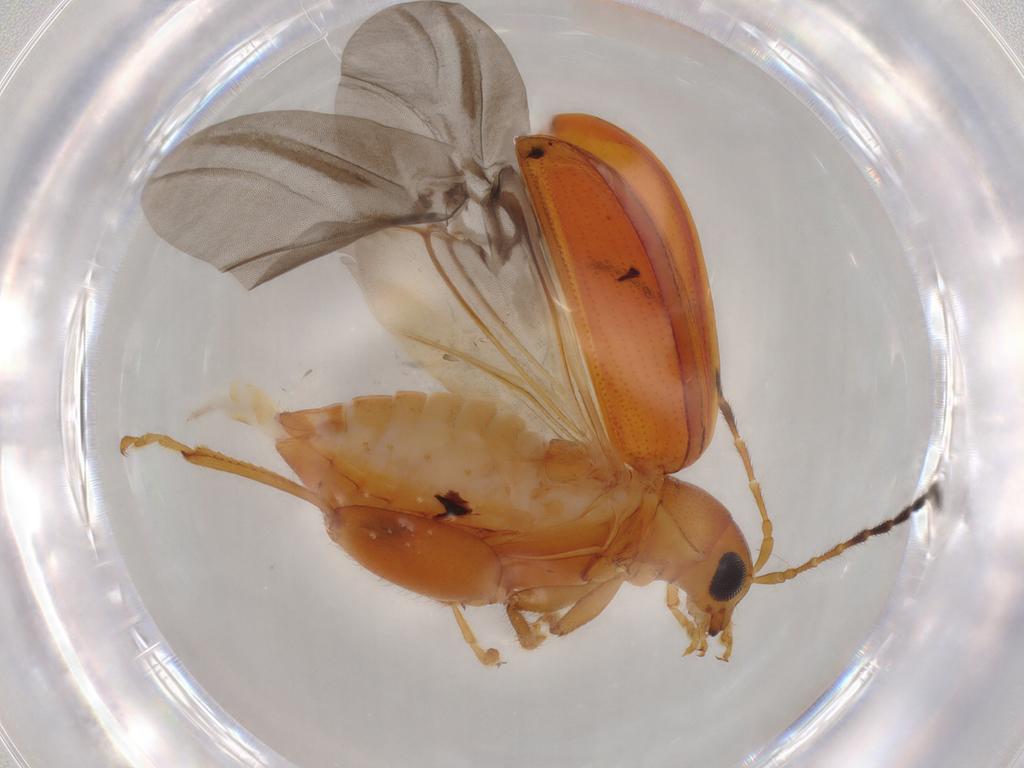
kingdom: Animalia
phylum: Arthropoda
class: Insecta
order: Coleoptera
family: Chrysomelidae
